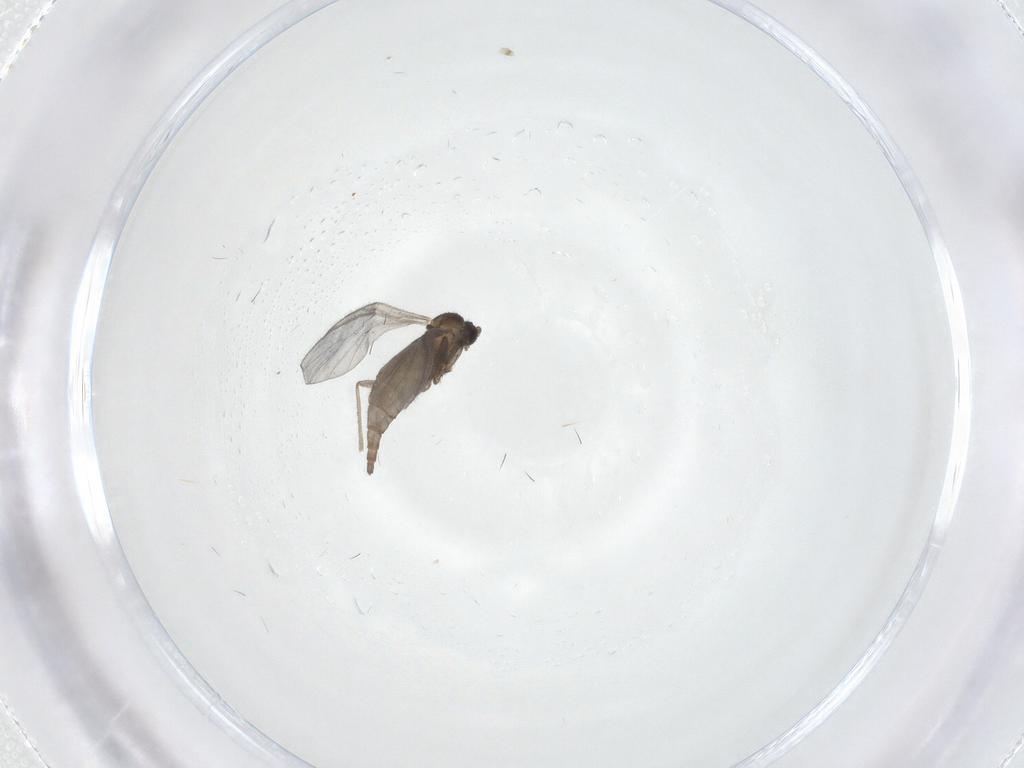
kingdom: Animalia
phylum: Arthropoda
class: Insecta
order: Diptera
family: Sciaridae
